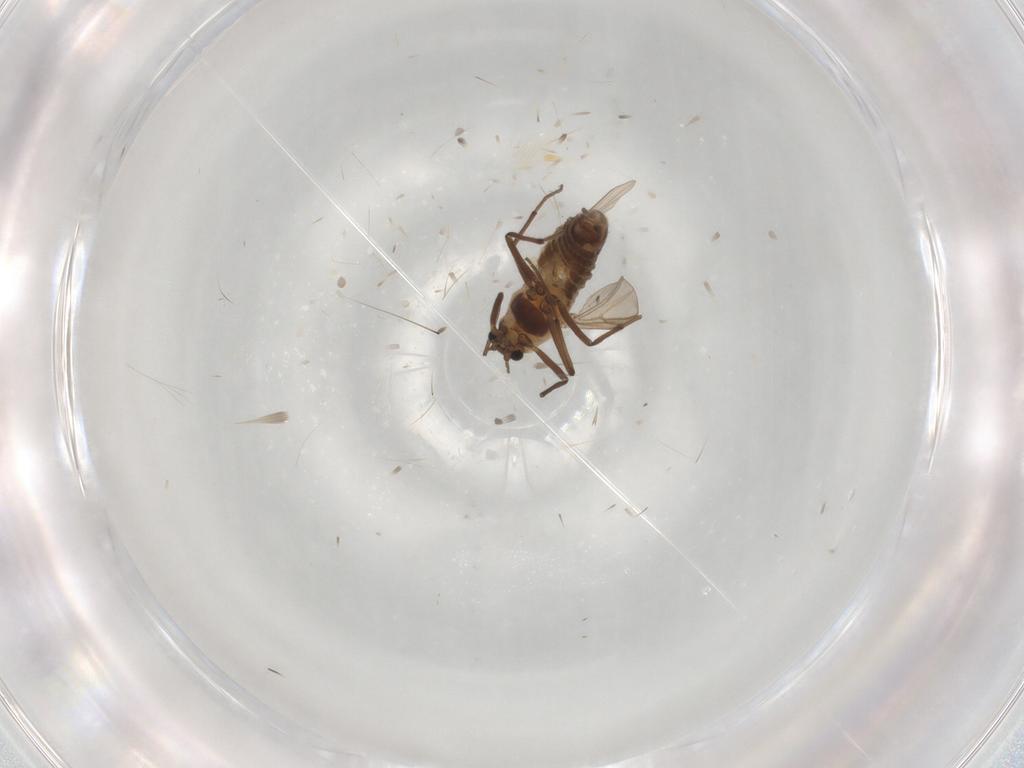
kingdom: Animalia
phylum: Arthropoda
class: Insecta
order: Diptera
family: Chironomidae
